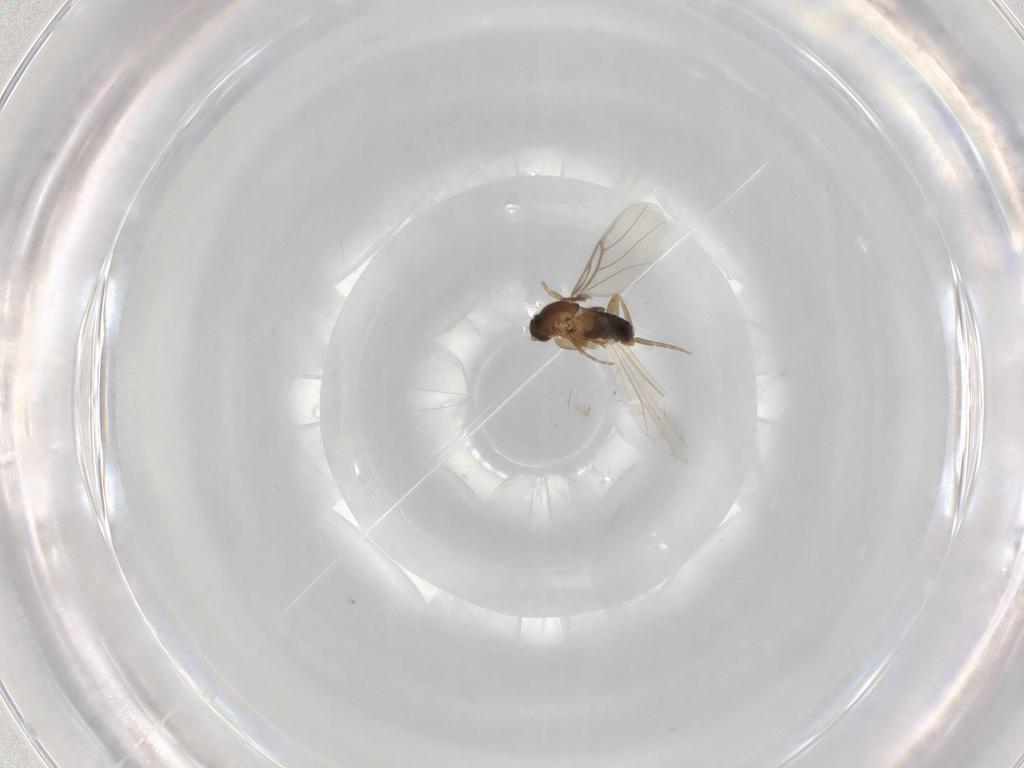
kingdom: Animalia
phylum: Arthropoda
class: Insecta
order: Diptera
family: Phoridae
